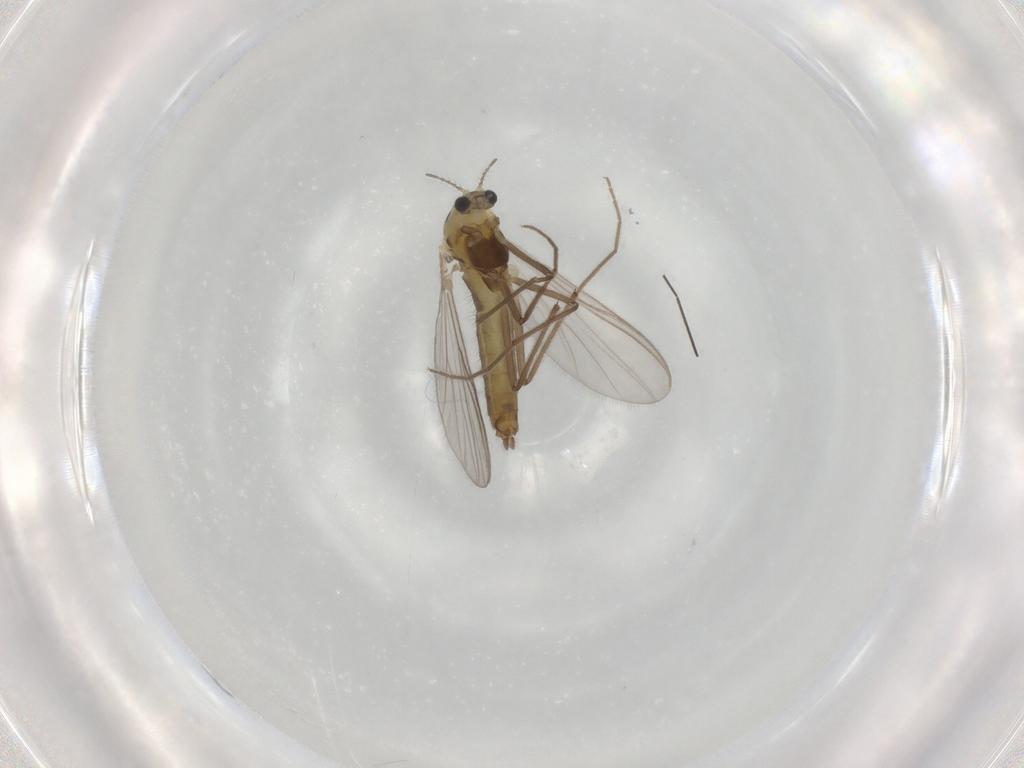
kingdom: Animalia
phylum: Arthropoda
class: Insecta
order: Diptera
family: Chironomidae
